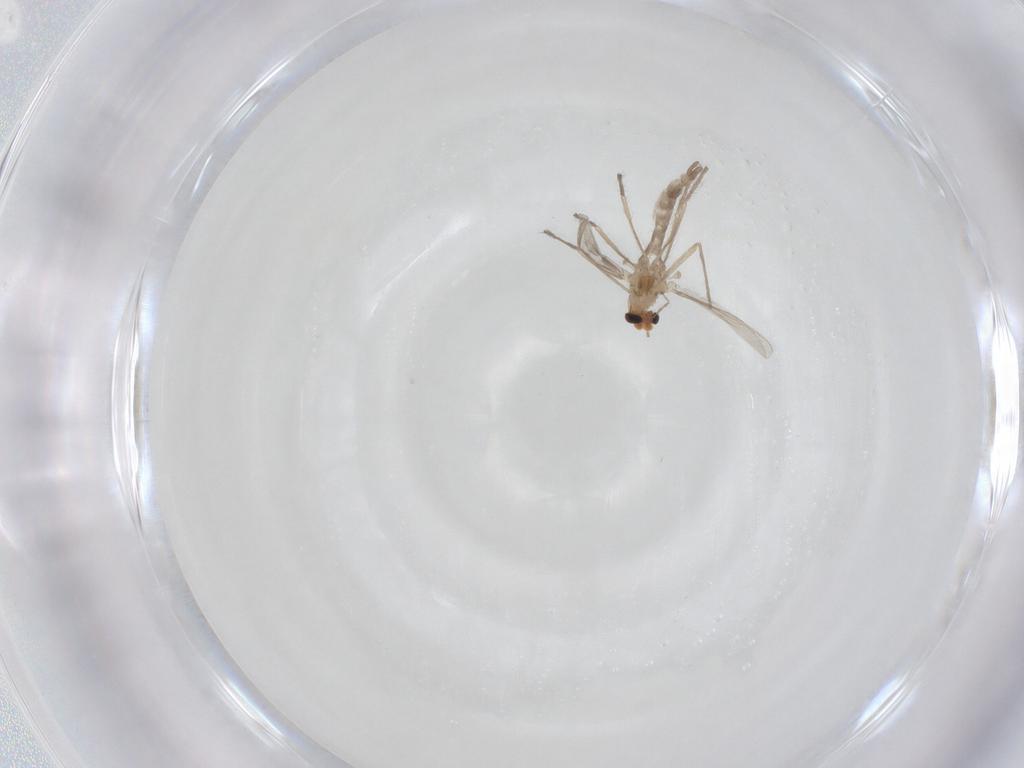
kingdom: Animalia
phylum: Arthropoda
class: Insecta
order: Diptera
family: Chironomidae
